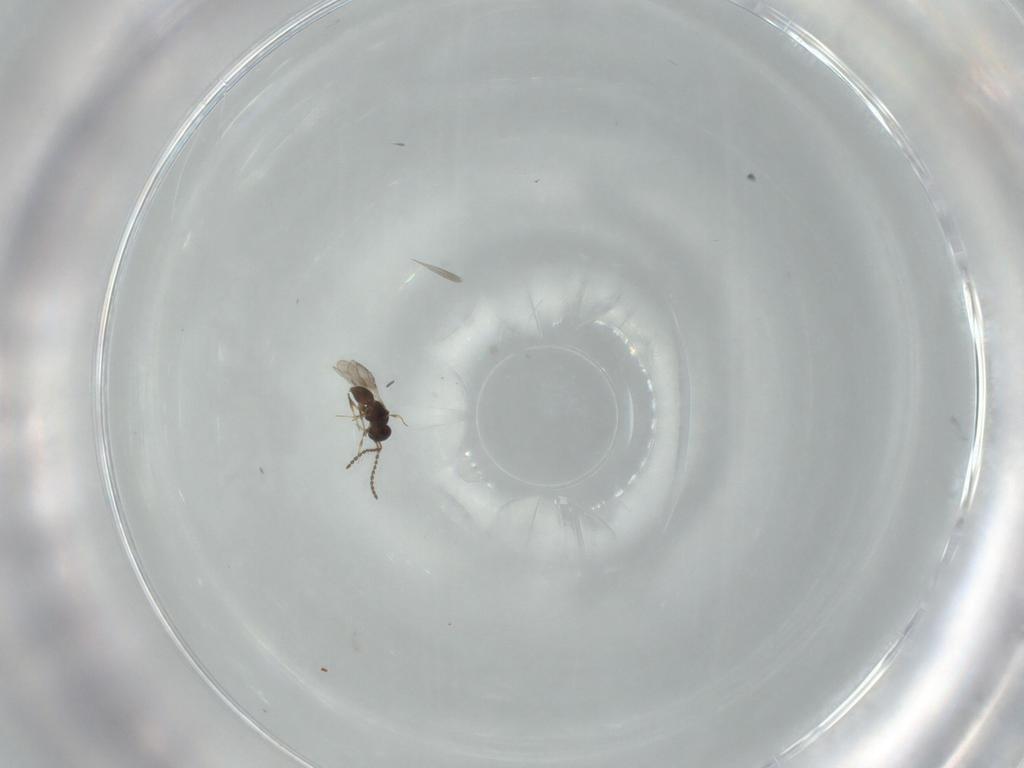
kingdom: Animalia
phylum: Arthropoda
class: Insecta
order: Hymenoptera
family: Ceraphronidae
